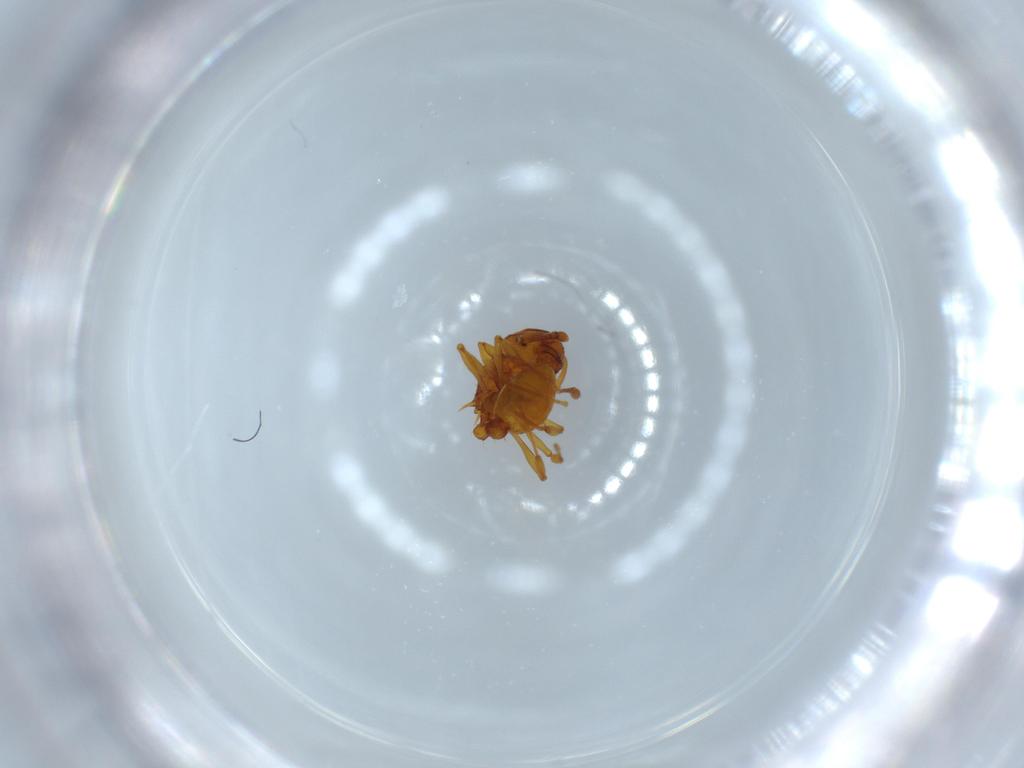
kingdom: Animalia
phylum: Arthropoda
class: Insecta
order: Hymenoptera
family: Formicidae
